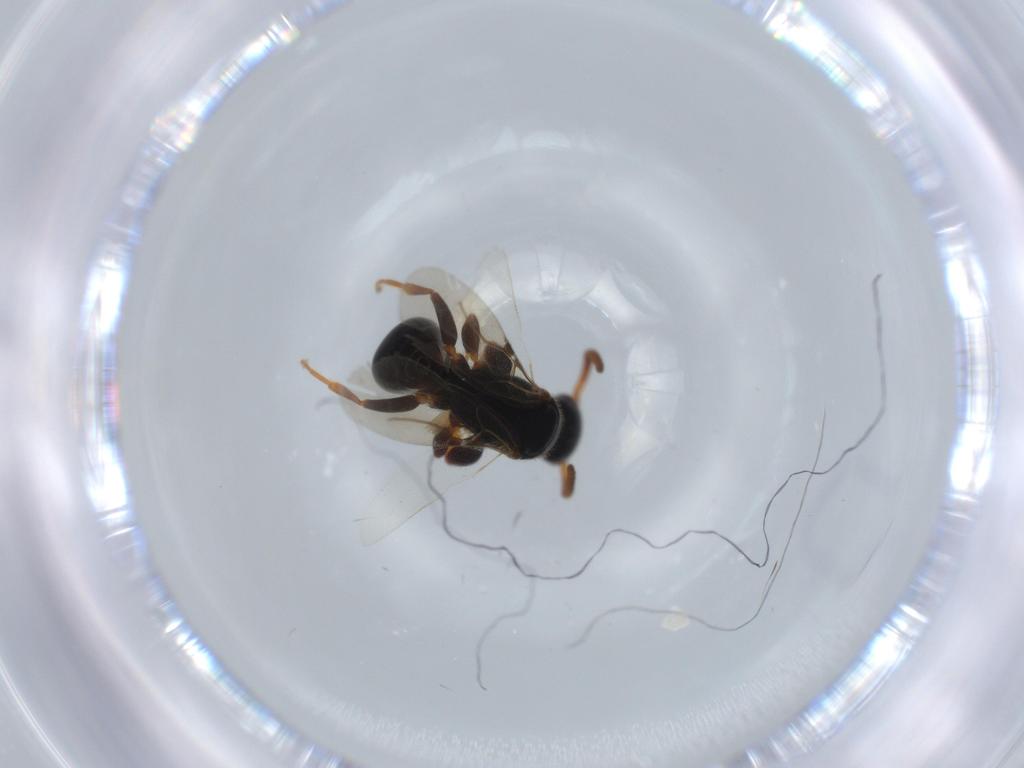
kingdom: Animalia
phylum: Arthropoda
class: Insecta
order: Hymenoptera
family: Bethylidae
